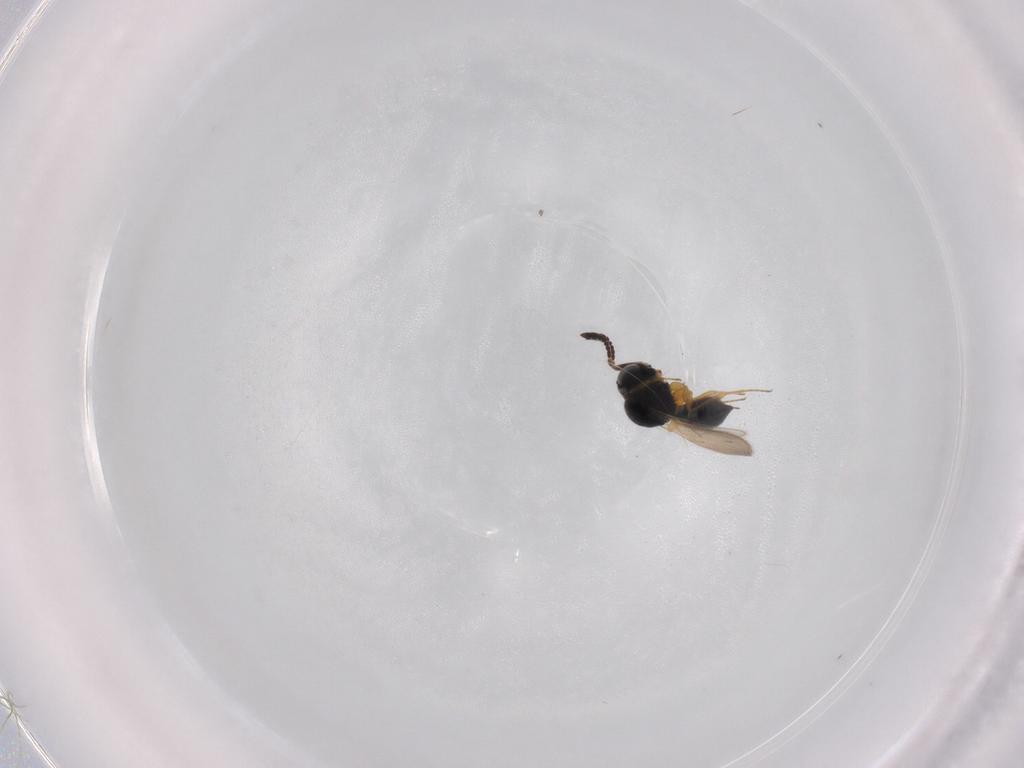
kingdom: Animalia
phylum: Arthropoda
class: Insecta
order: Hymenoptera
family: Scelionidae
